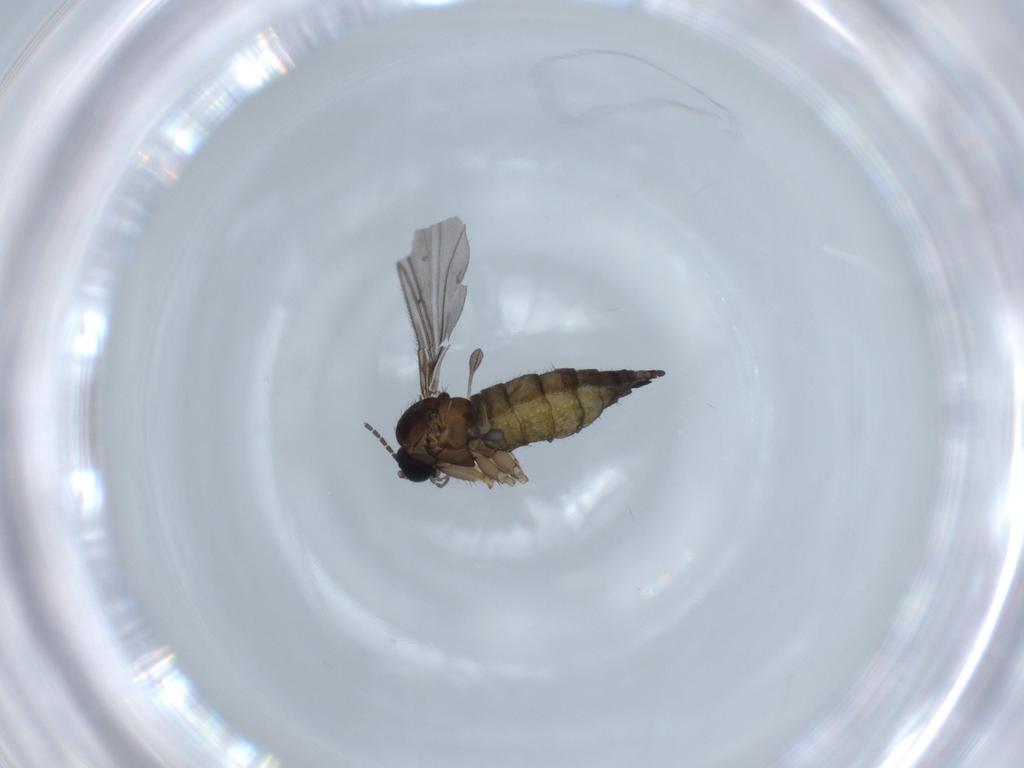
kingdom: Animalia
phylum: Arthropoda
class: Insecta
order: Diptera
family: Sciaridae
